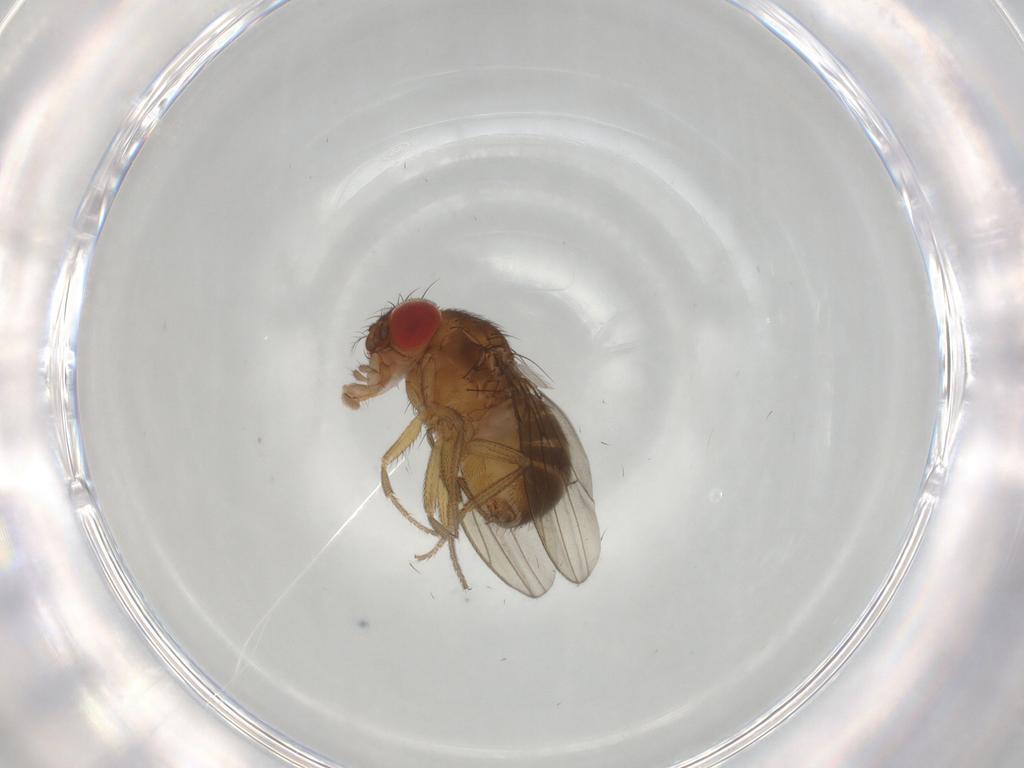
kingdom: Animalia
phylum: Arthropoda
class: Insecta
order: Diptera
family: Drosophilidae
